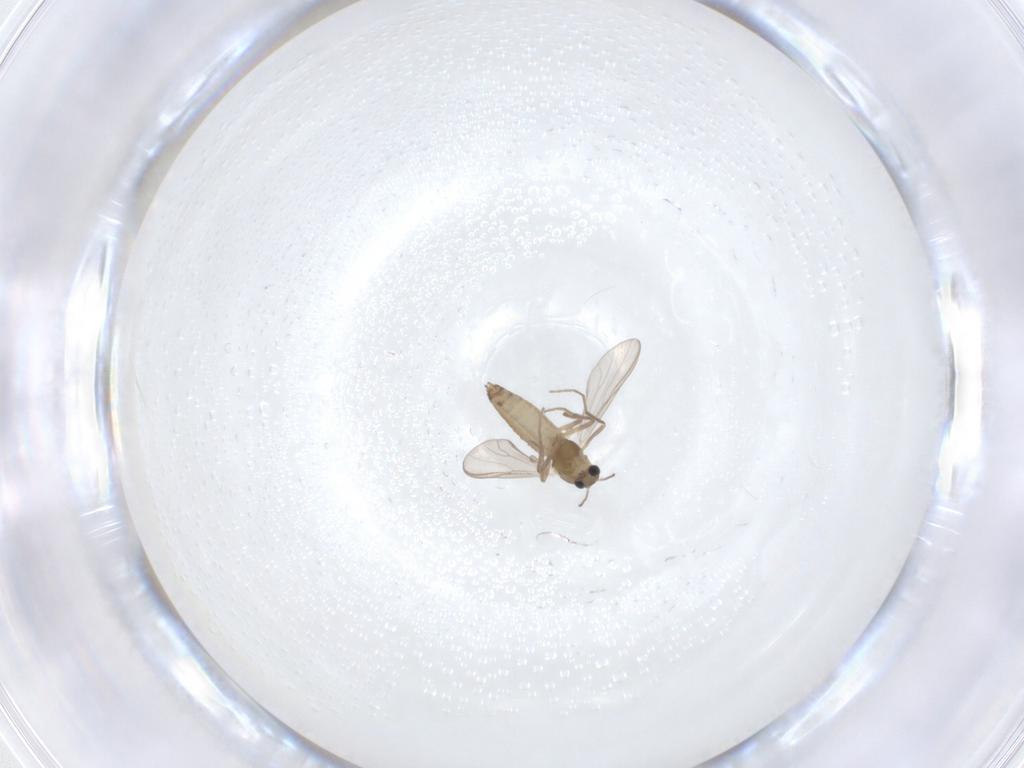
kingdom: Animalia
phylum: Arthropoda
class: Insecta
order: Diptera
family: Chironomidae
